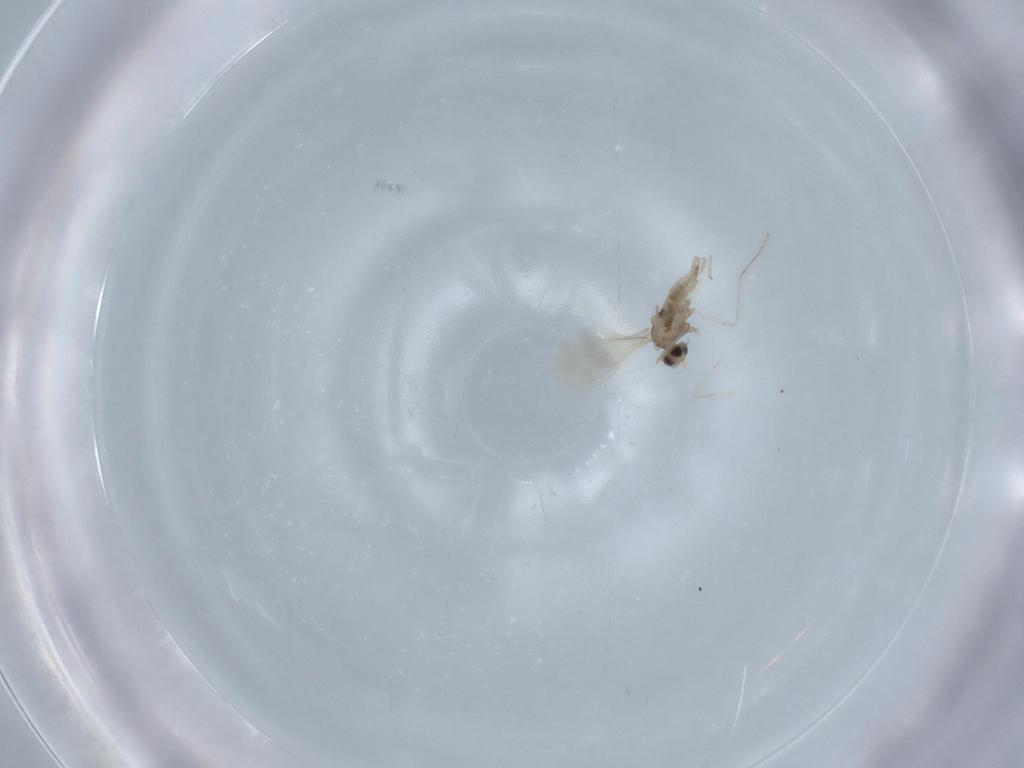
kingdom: Animalia
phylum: Arthropoda
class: Insecta
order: Diptera
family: Cecidomyiidae
